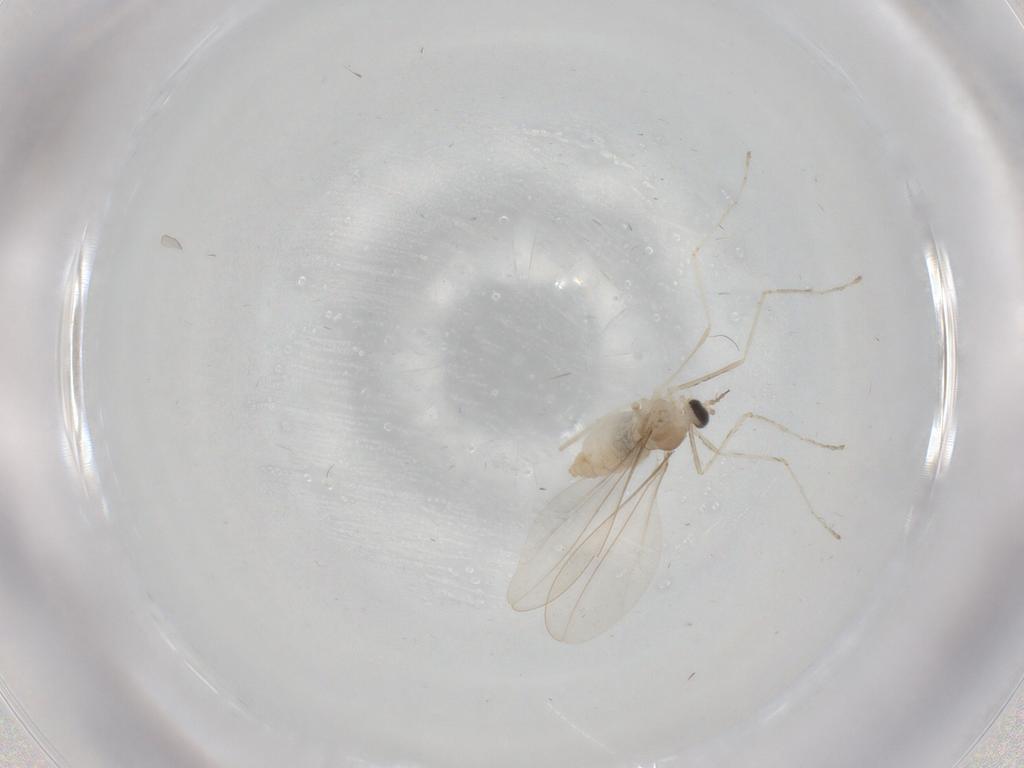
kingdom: Animalia
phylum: Arthropoda
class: Insecta
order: Diptera
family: Cecidomyiidae
